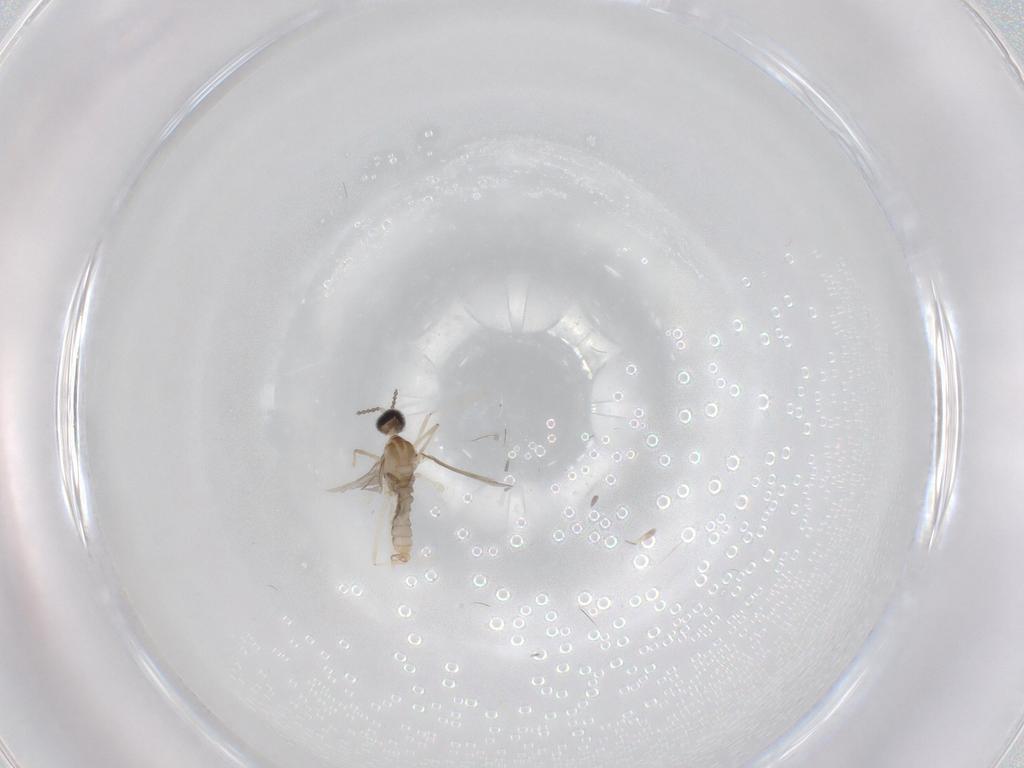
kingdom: Animalia
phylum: Arthropoda
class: Insecta
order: Diptera
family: Cecidomyiidae
